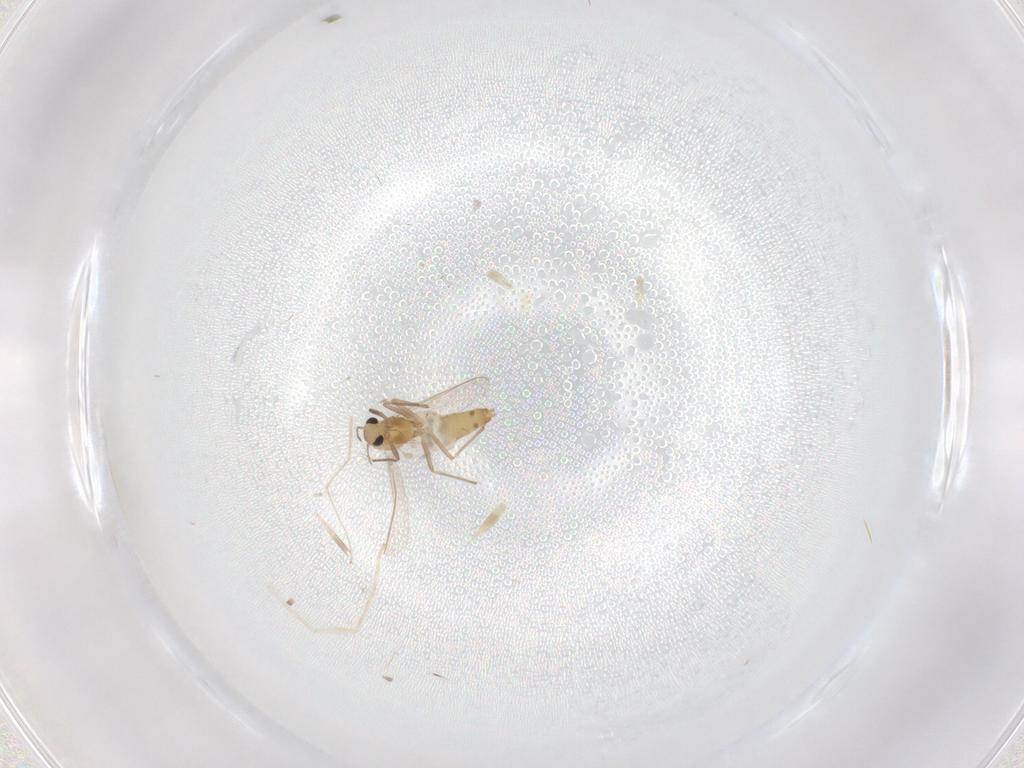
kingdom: Animalia
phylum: Arthropoda
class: Insecta
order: Diptera
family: Chironomidae
